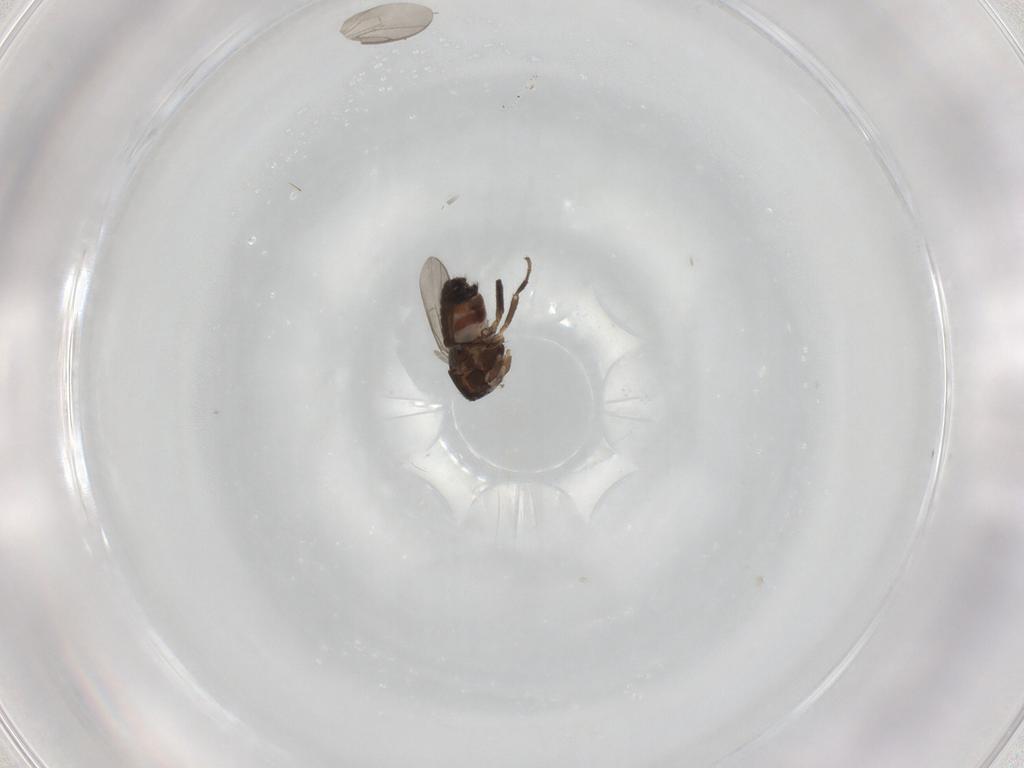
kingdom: Animalia
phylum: Arthropoda
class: Insecta
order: Diptera
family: Sphaeroceridae
